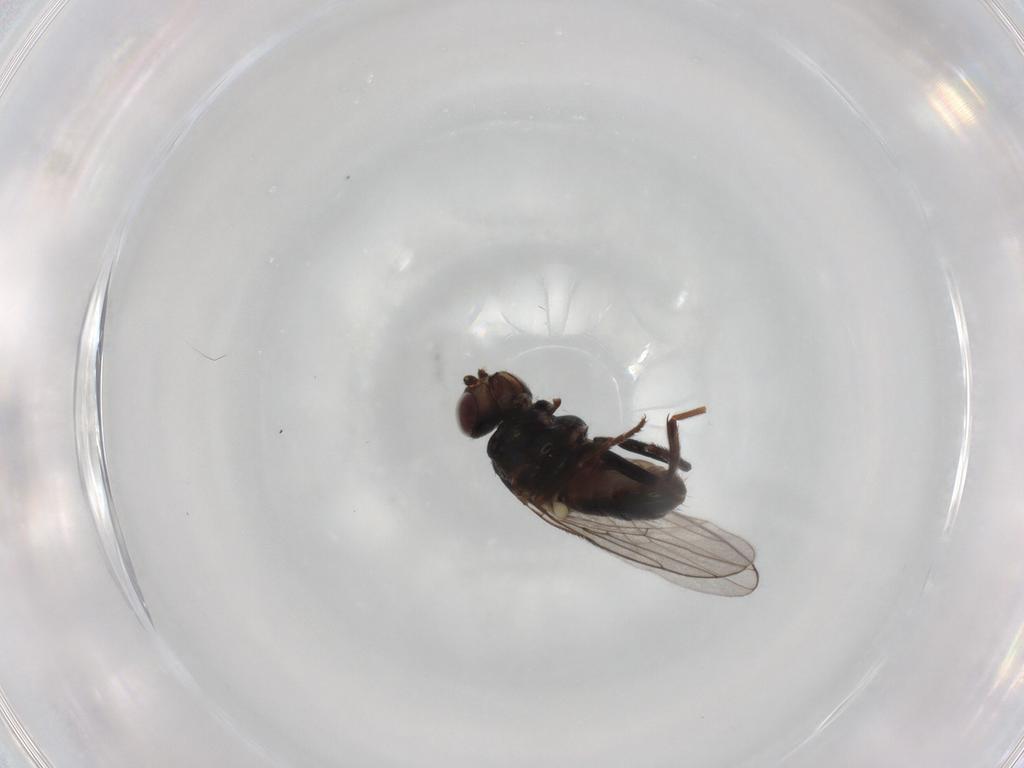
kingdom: Animalia
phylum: Arthropoda
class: Insecta
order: Diptera
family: Chloropidae
